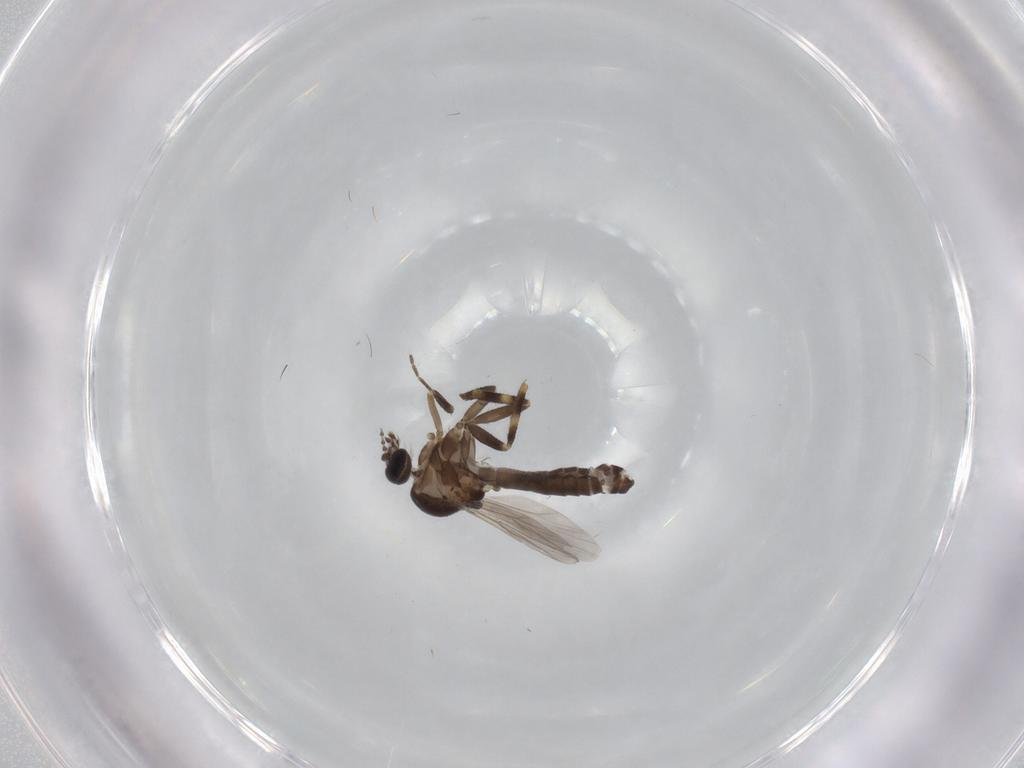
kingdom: Animalia
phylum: Arthropoda
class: Insecta
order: Diptera
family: Ceratopogonidae
